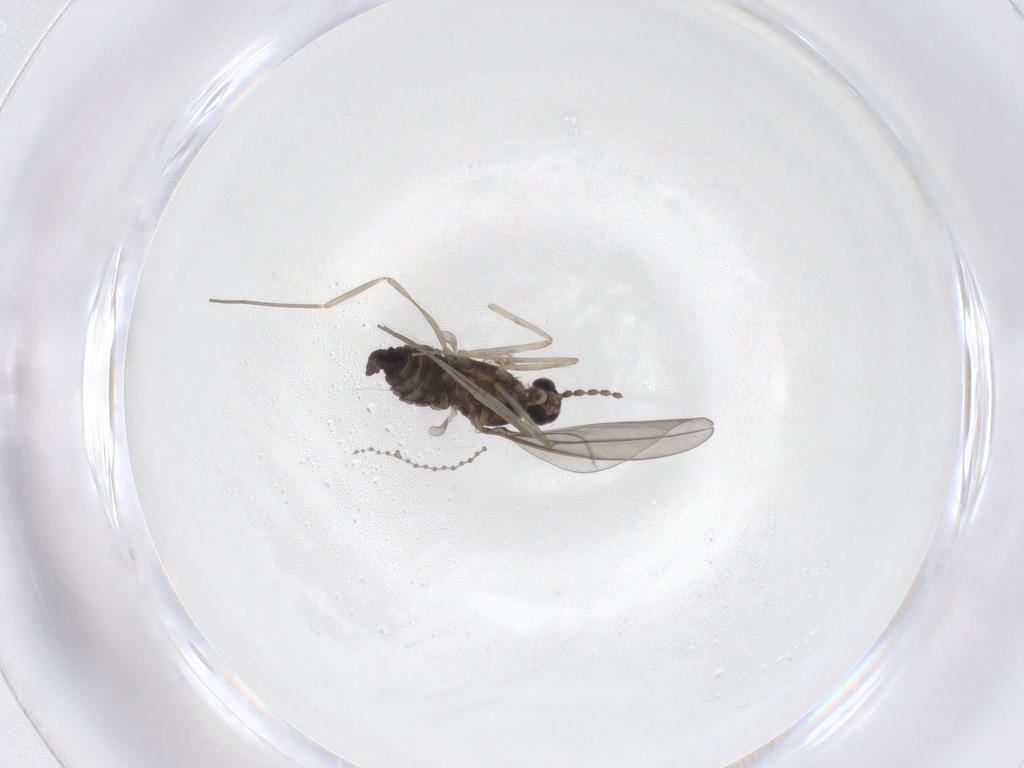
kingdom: Animalia
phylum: Arthropoda
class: Insecta
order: Diptera
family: Cecidomyiidae
